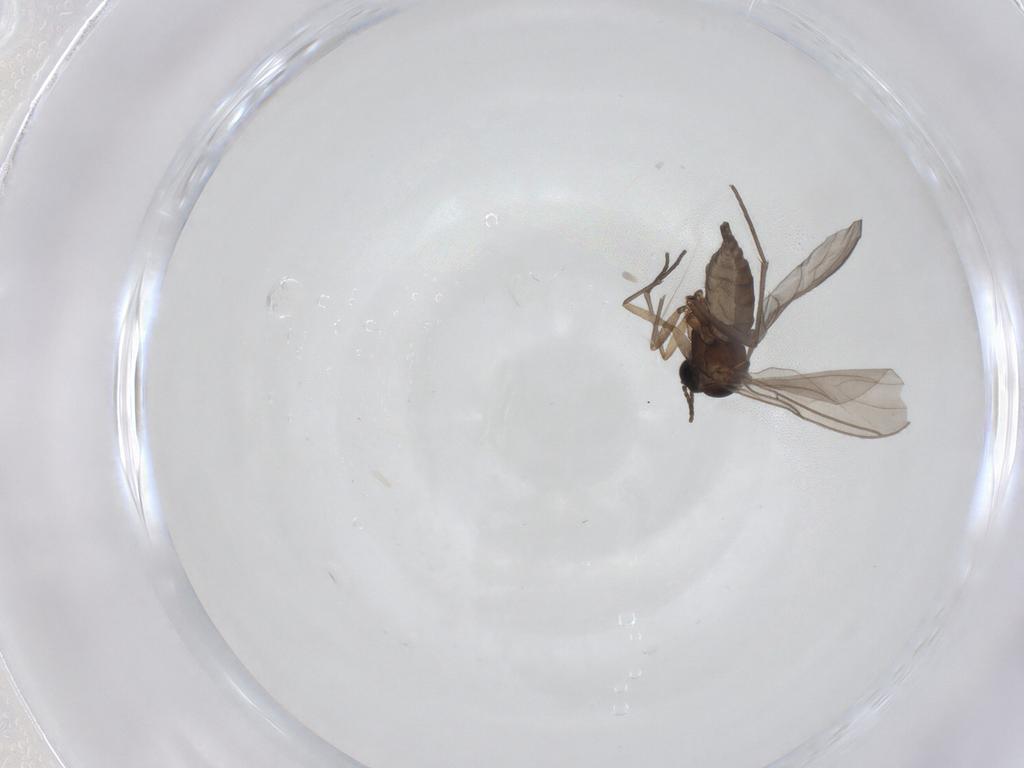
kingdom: Animalia
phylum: Arthropoda
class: Insecta
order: Diptera
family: Sciaridae
